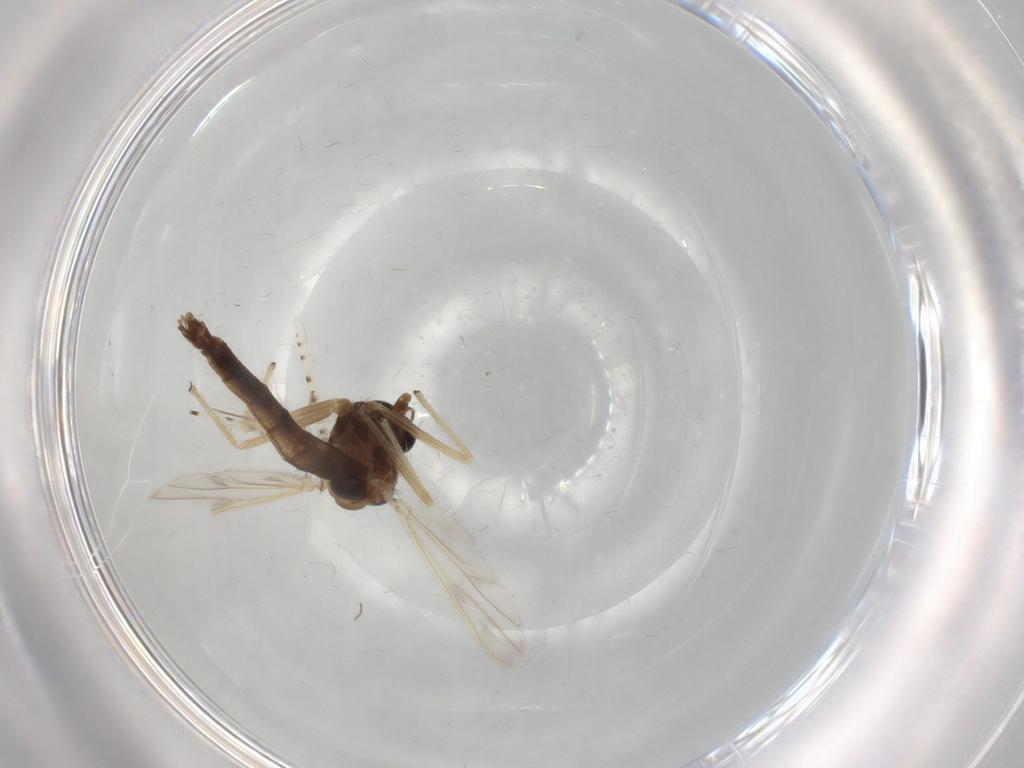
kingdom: Animalia
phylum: Arthropoda
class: Insecta
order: Diptera
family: Chironomidae
